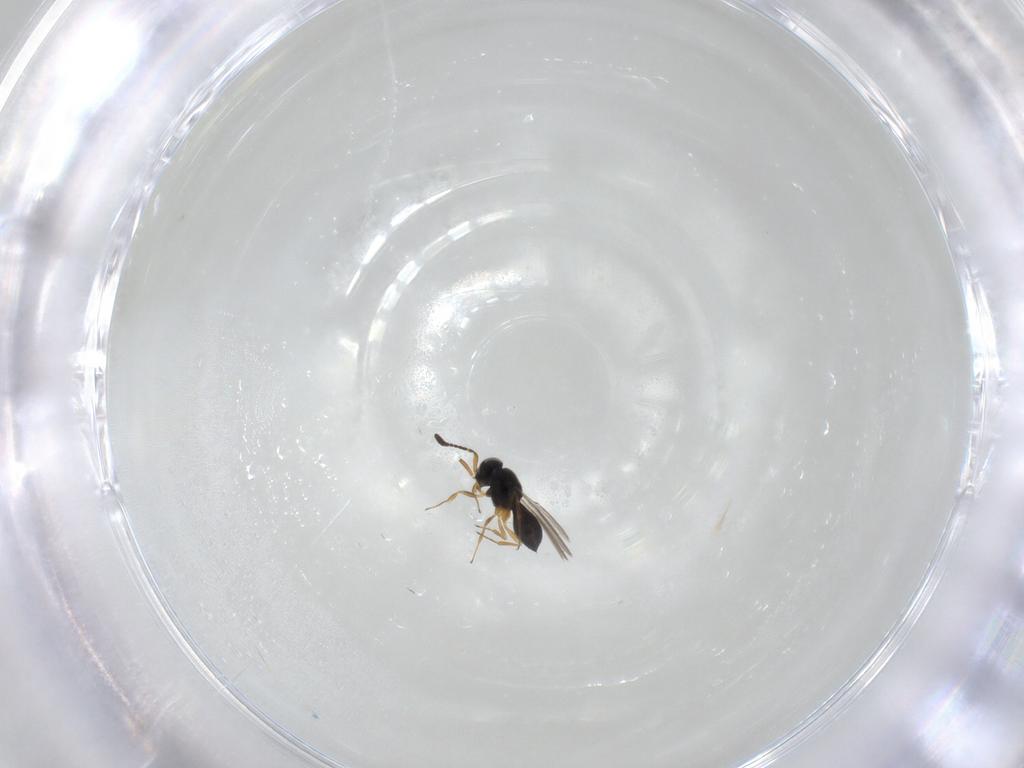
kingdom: Animalia
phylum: Arthropoda
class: Insecta
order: Hymenoptera
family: Scelionidae
